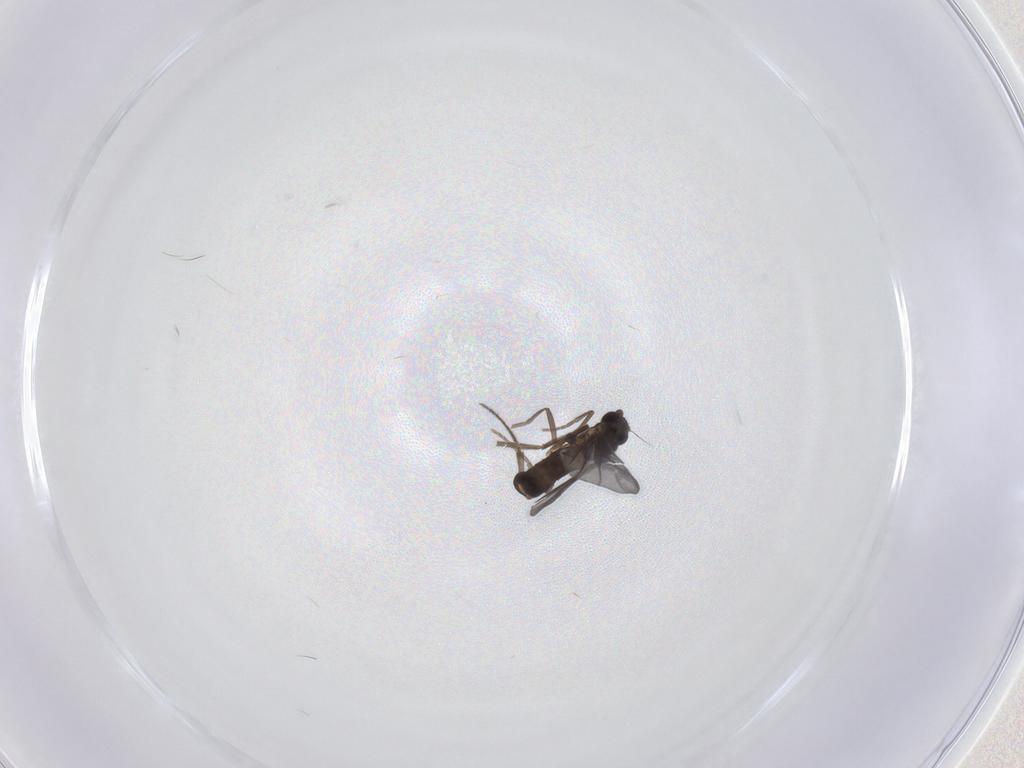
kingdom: Animalia
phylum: Arthropoda
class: Insecta
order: Diptera
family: Phoridae
